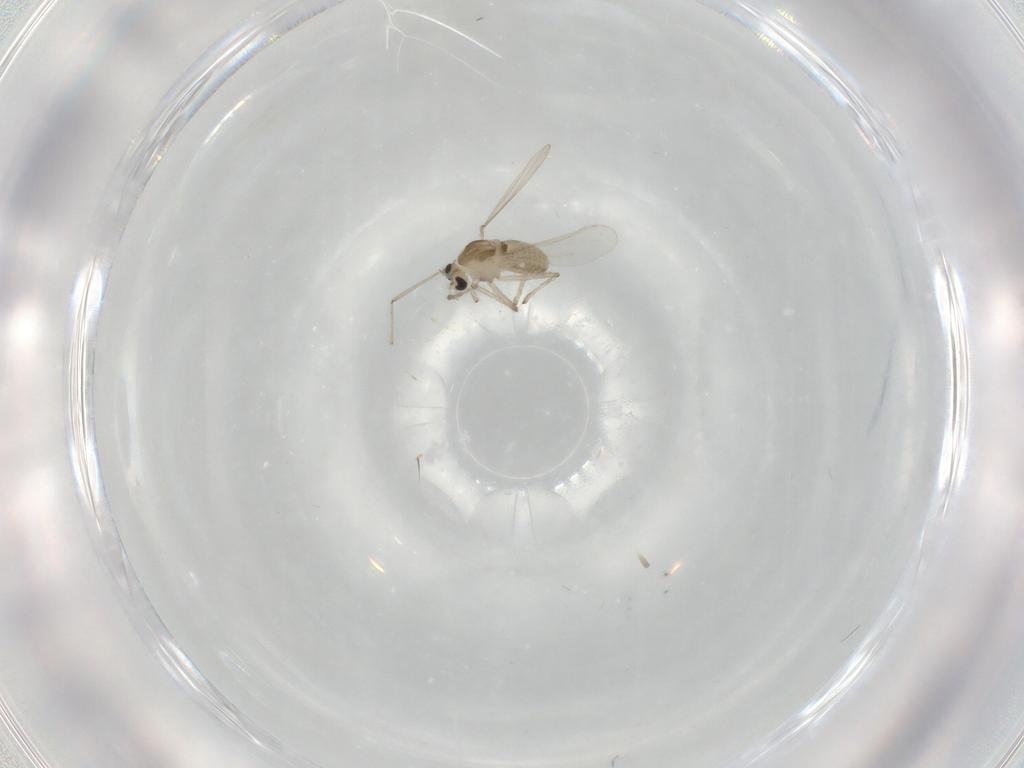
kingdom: Animalia
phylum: Arthropoda
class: Insecta
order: Diptera
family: Chironomidae
